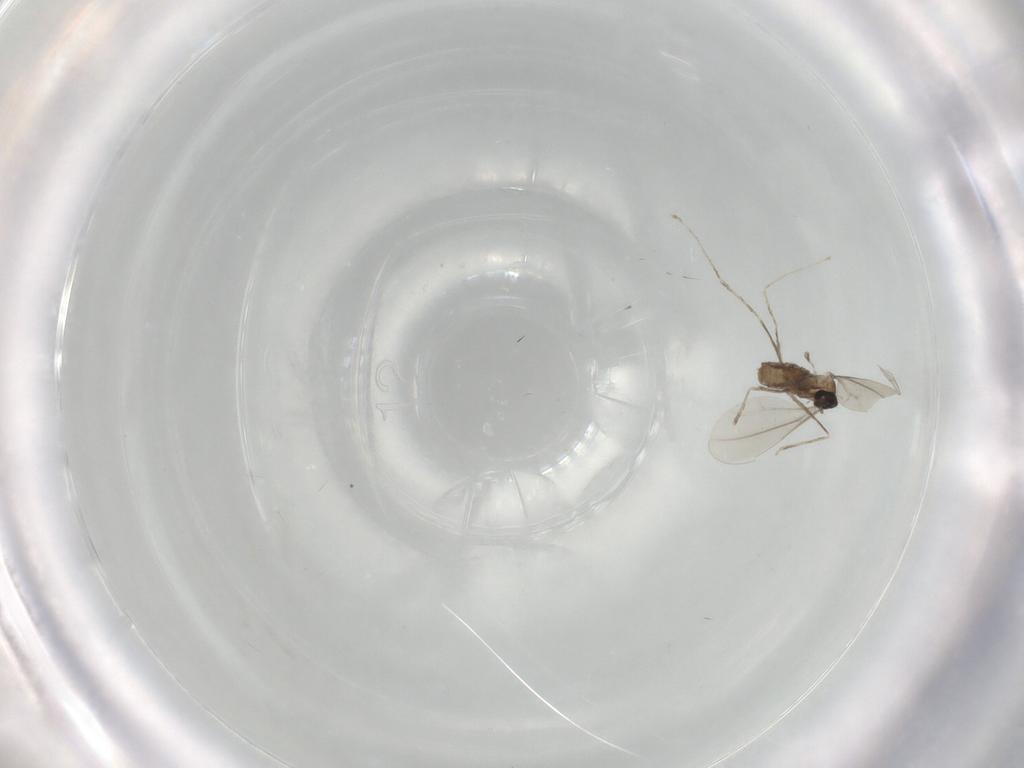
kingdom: Animalia
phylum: Arthropoda
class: Insecta
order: Diptera
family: Cecidomyiidae
